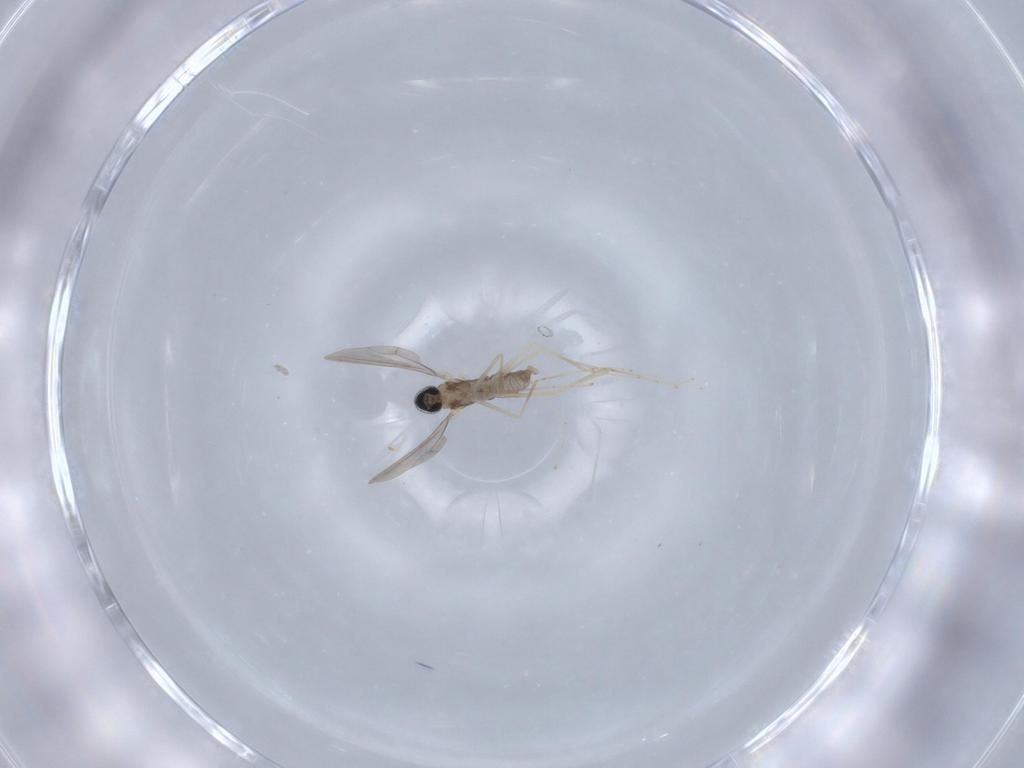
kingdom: Animalia
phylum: Arthropoda
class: Insecta
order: Diptera
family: Cecidomyiidae
